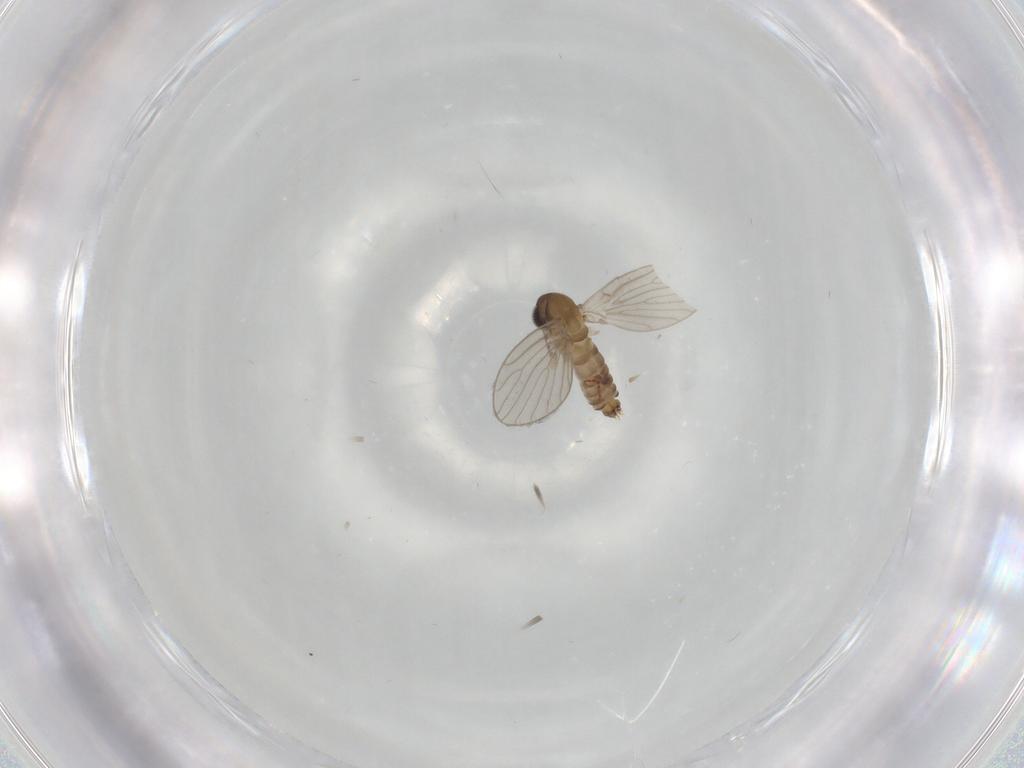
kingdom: Animalia
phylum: Arthropoda
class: Insecta
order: Diptera
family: Psychodidae
